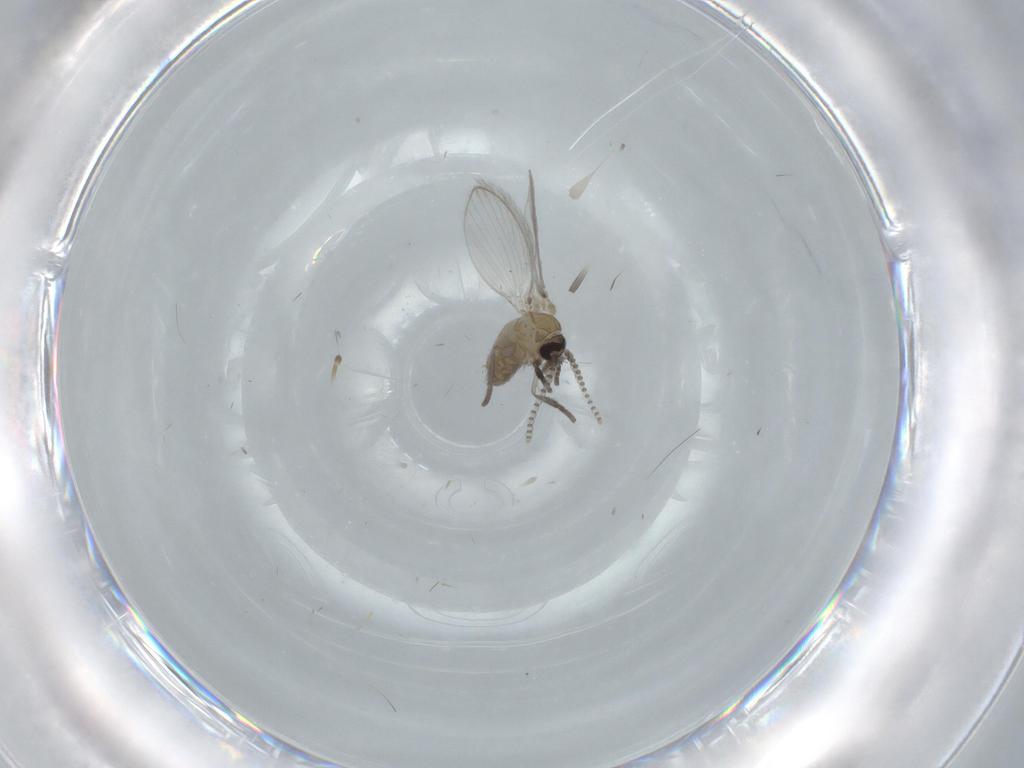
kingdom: Animalia
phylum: Arthropoda
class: Insecta
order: Diptera
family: Psychodidae
